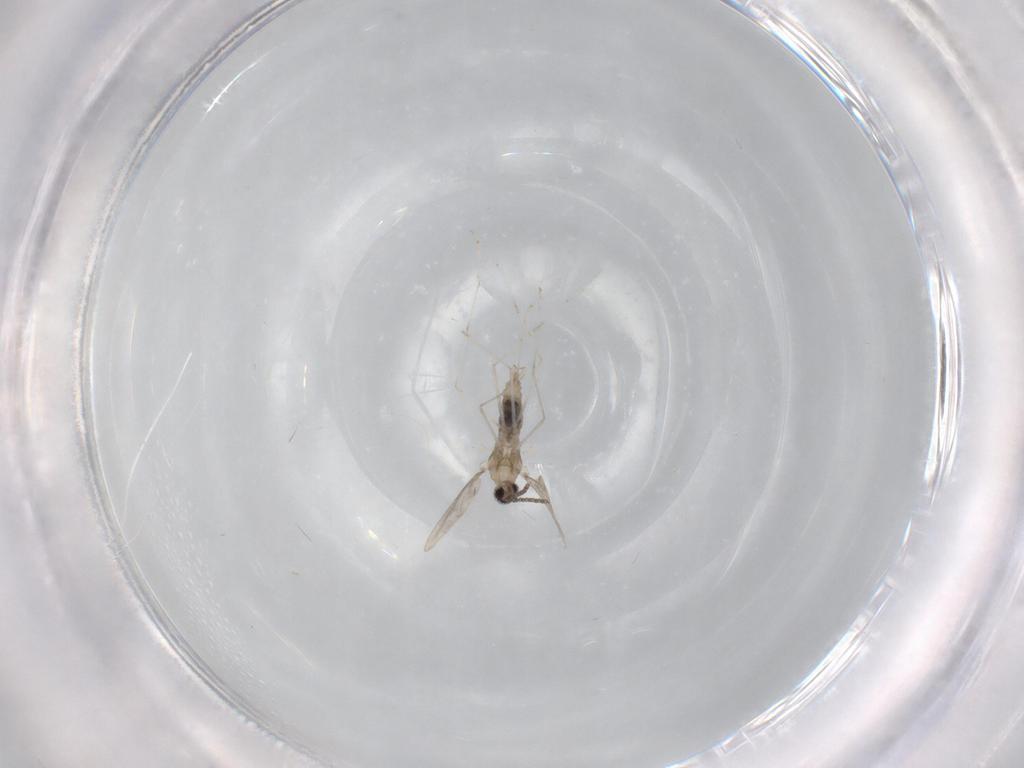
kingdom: Animalia
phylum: Arthropoda
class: Insecta
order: Diptera
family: Cecidomyiidae
